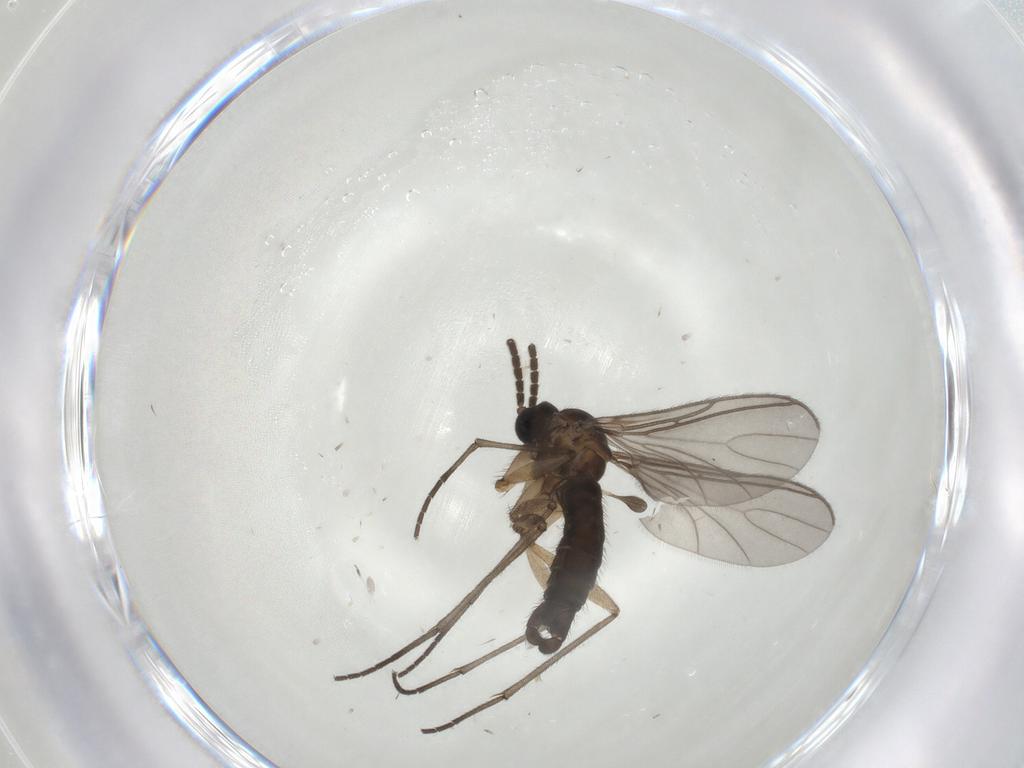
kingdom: Animalia
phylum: Arthropoda
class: Insecta
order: Diptera
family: Sciaridae
